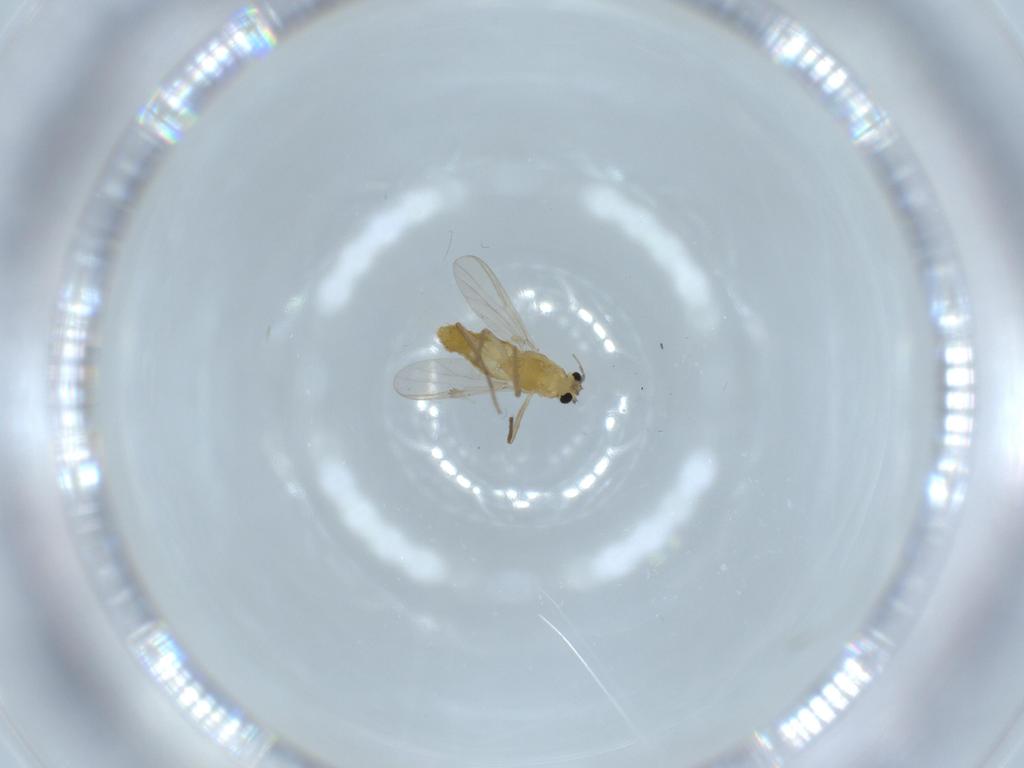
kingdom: Animalia
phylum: Arthropoda
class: Insecta
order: Diptera
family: Chironomidae
